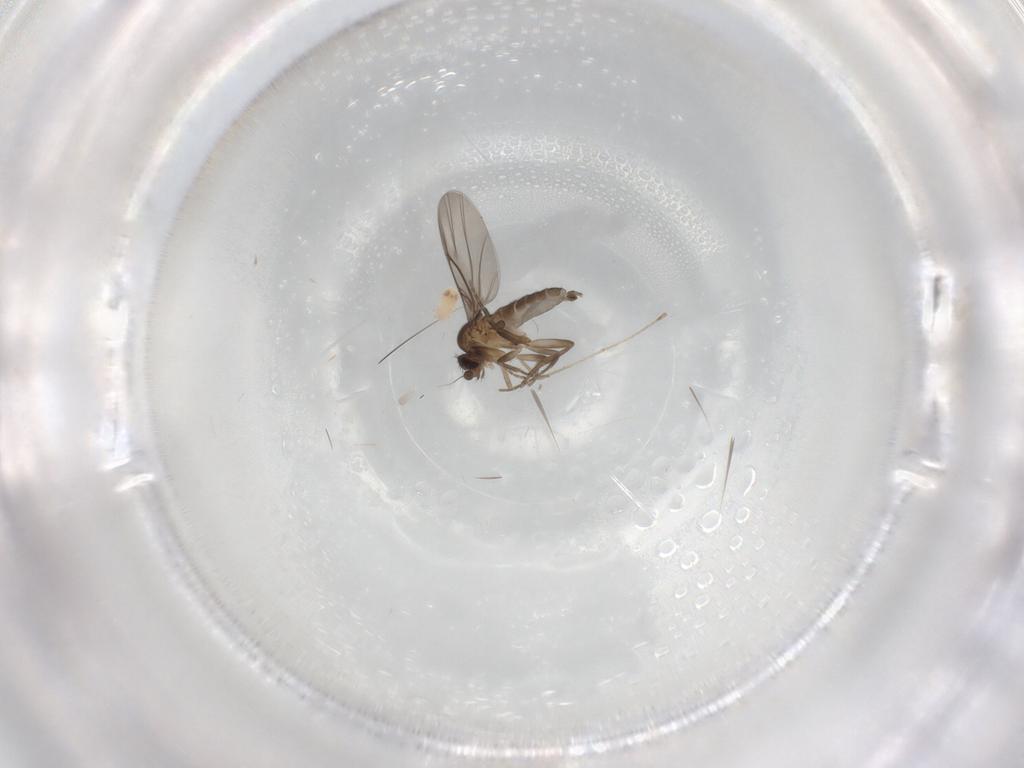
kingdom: Animalia
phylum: Arthropoda
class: Insecta
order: Diptera
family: Cecidomyiidae
